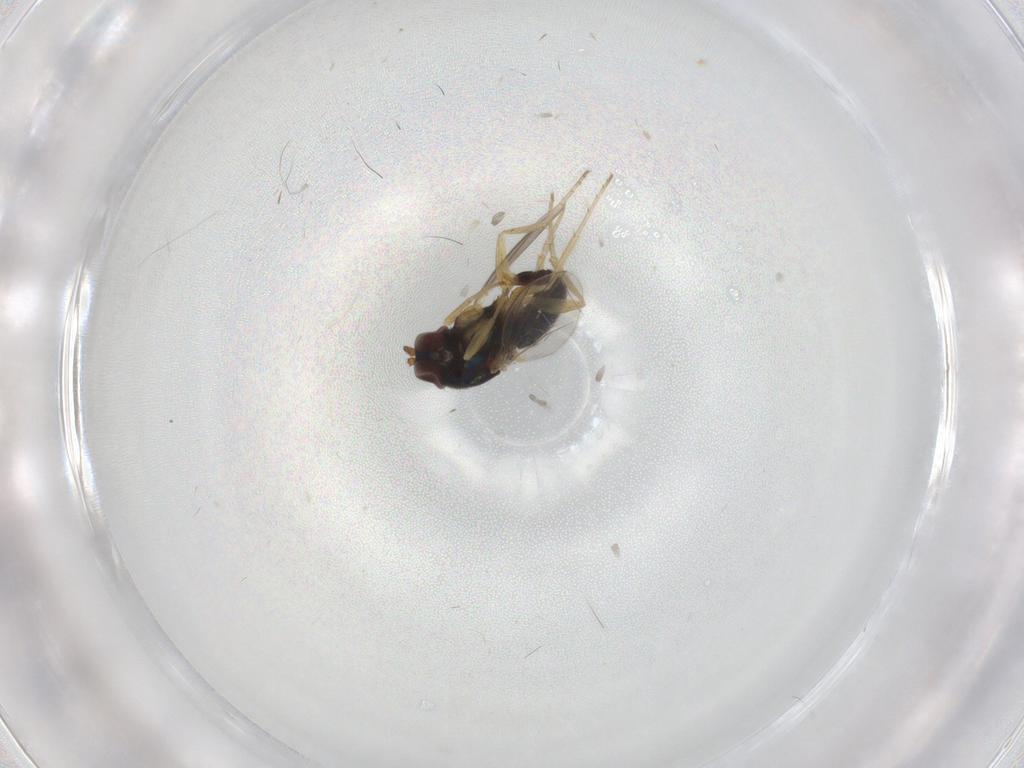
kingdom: Animalia
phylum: Arthropoda
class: Insecta
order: Diptera
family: Dolichopodidae
